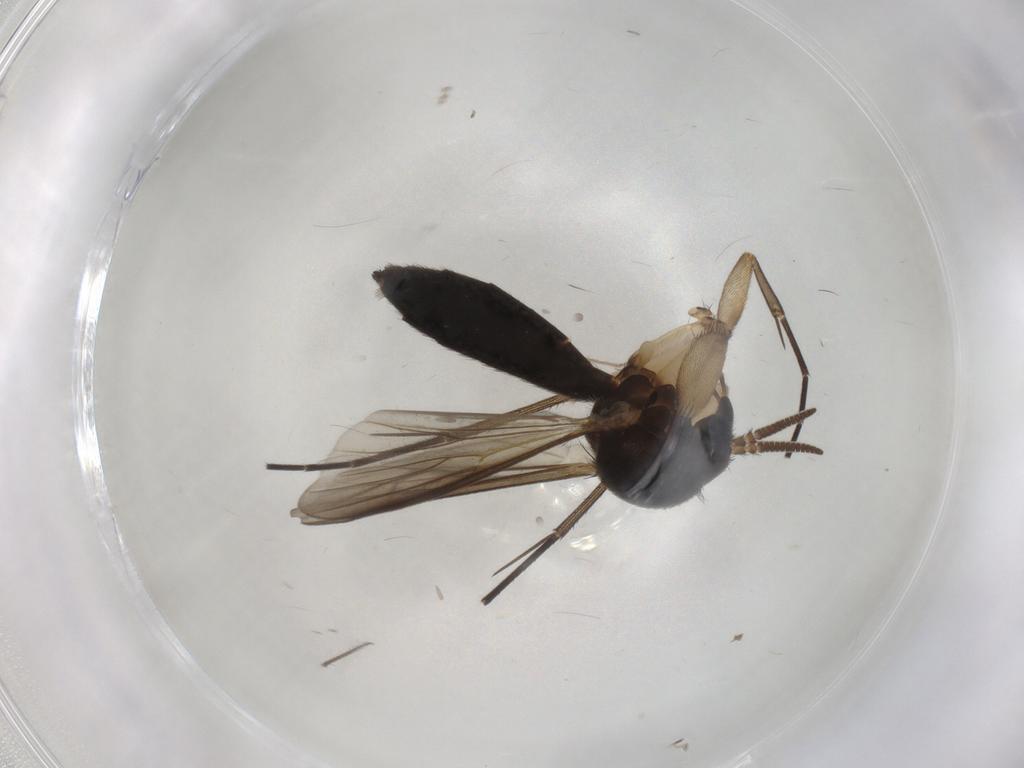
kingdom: Animalia
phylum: Arthropoda
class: Insecta
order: Diptera
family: Mycetophilidae
